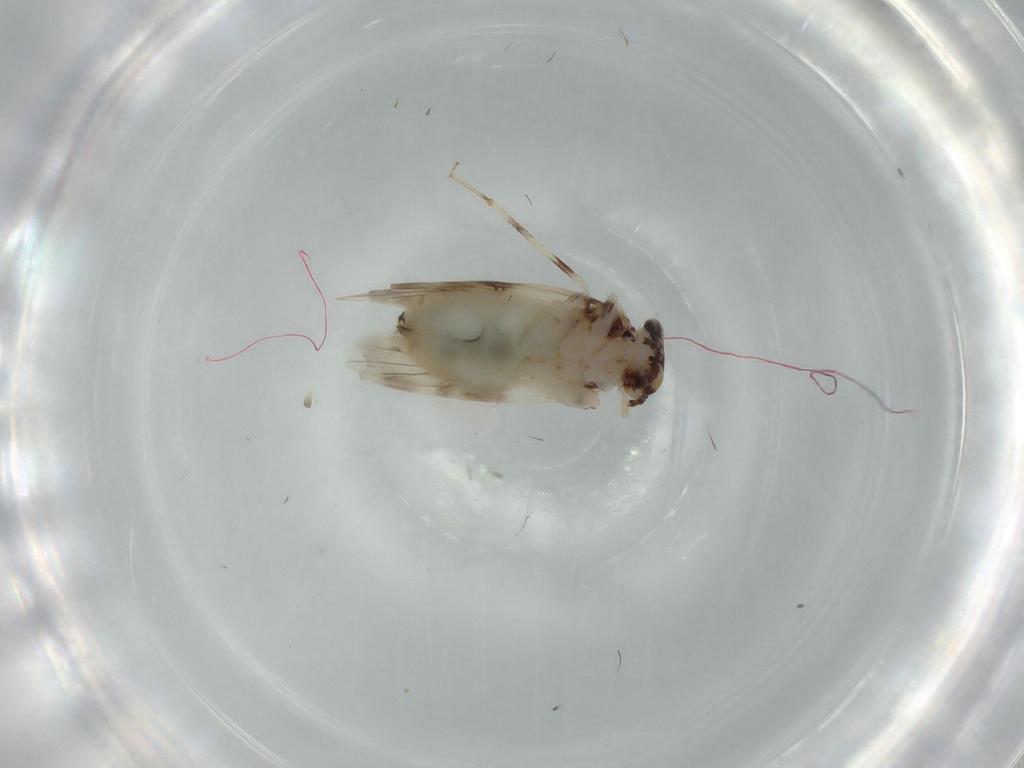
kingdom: Animalia
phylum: Arthropoda
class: Insecta
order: Psocodea
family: Lepidopsocidae
